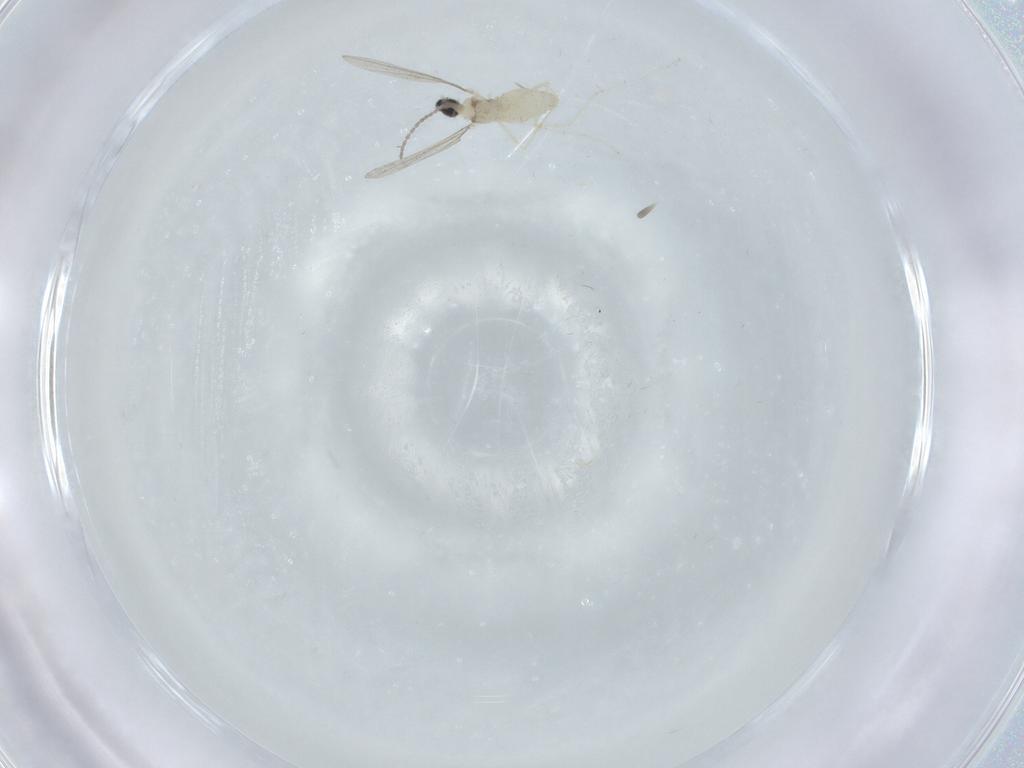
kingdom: Animalia
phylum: Arthropoda
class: Insecta
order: Diptera
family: Cecidomyiidae
